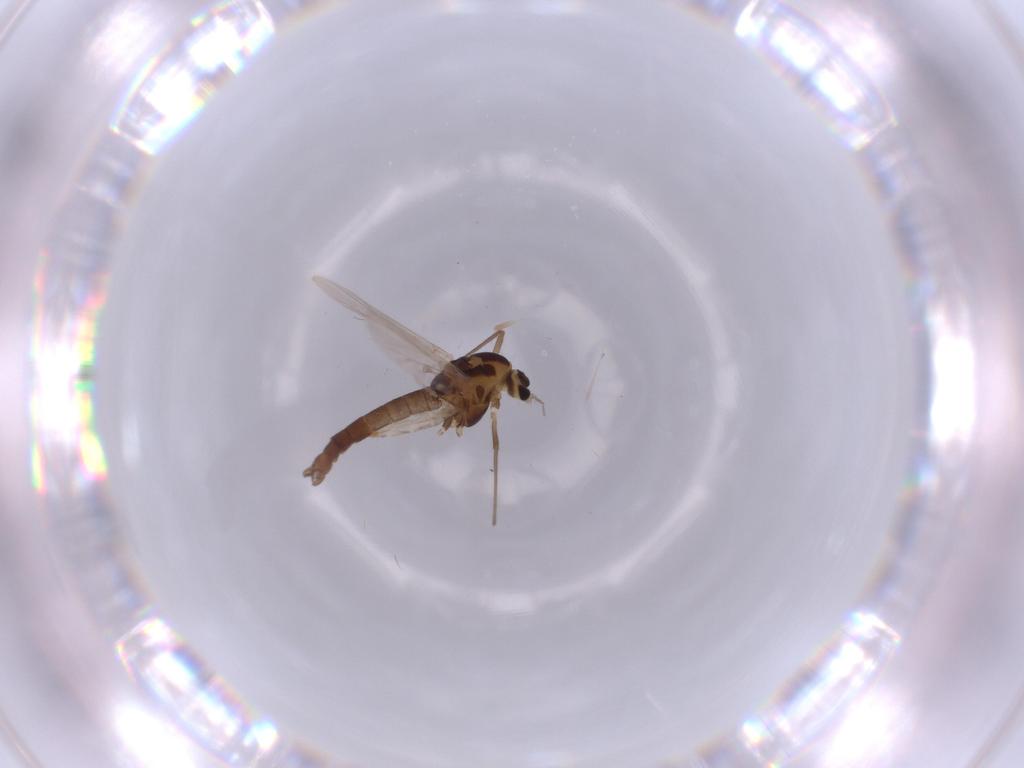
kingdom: Animalia
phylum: Arthropoda
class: Insecta
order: Diptera
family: Chironomidae
